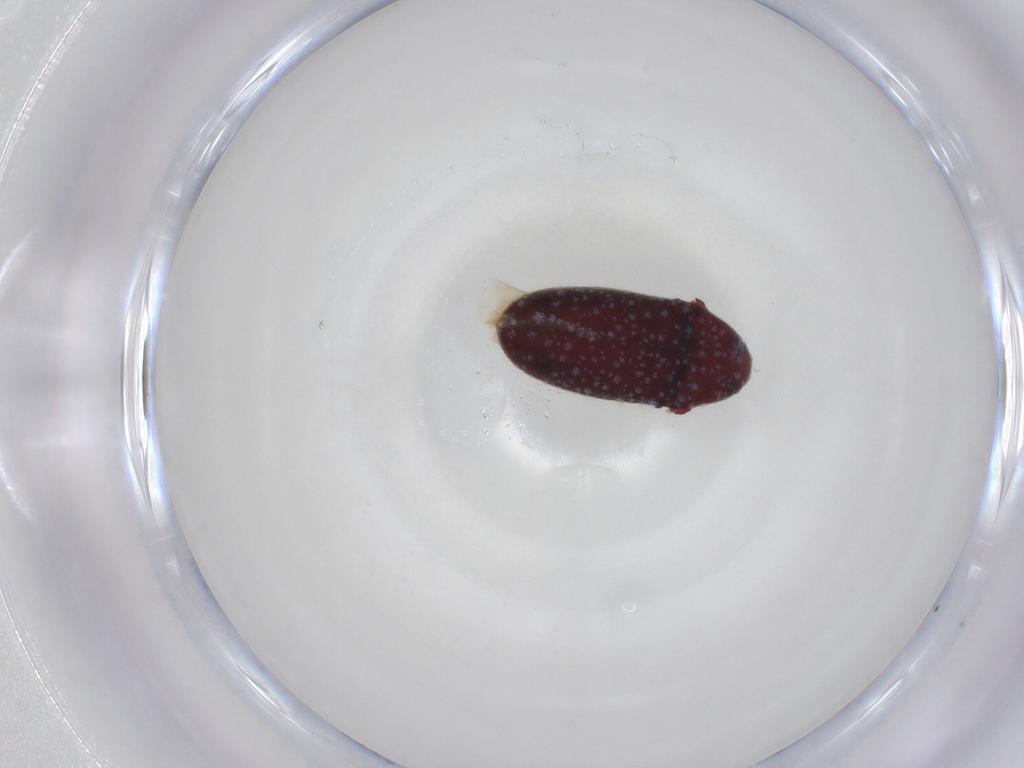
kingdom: Animalia
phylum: Arthropoda
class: Insecta
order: Coleoptera
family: Throscidae
